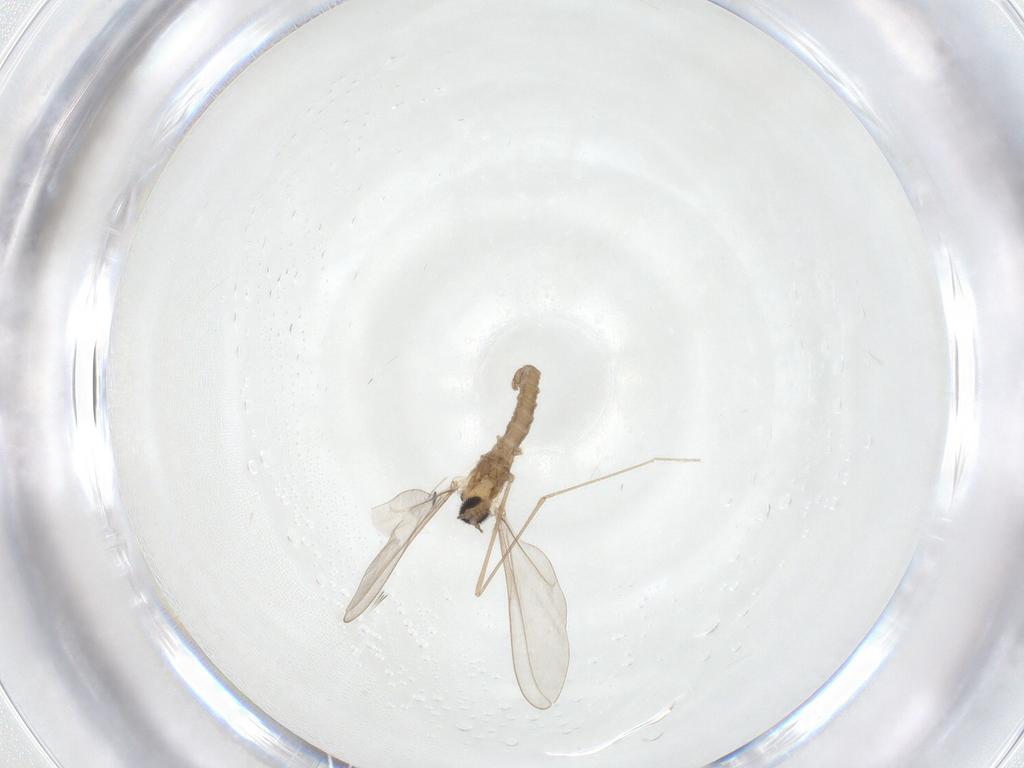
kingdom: Animalia
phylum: Arthropoda
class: Insecta
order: Diptera
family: Cecidomyiidae
